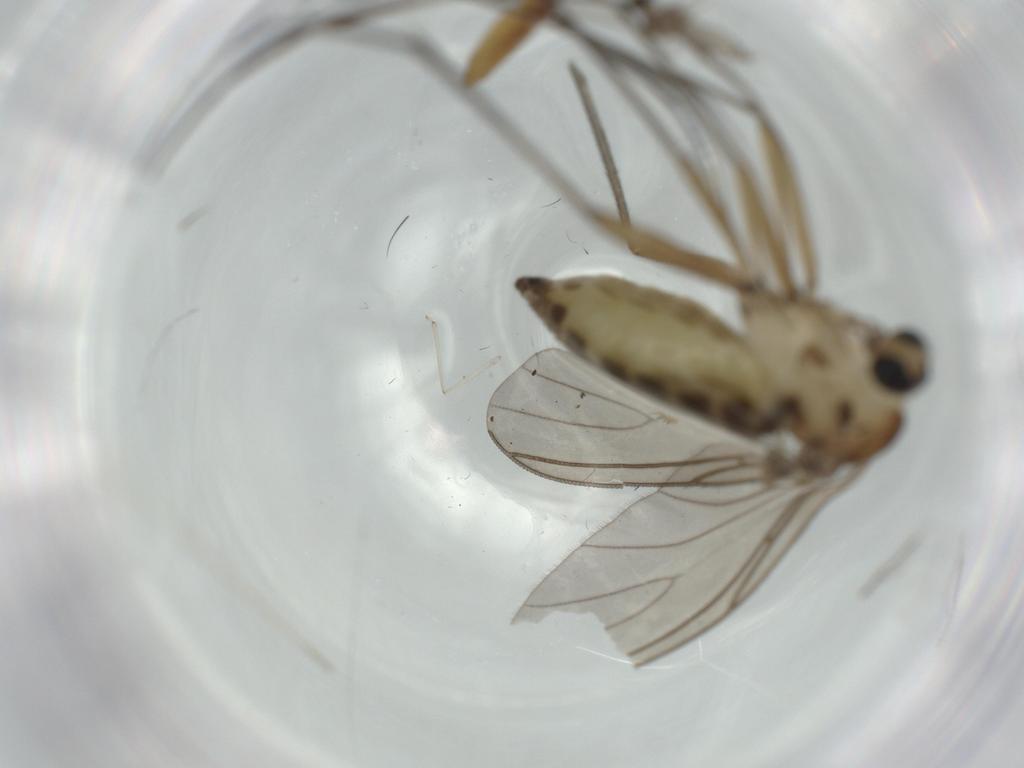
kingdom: Animalia
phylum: Arthropoda
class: Insecta
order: Diptera
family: Cecidomyiidae
